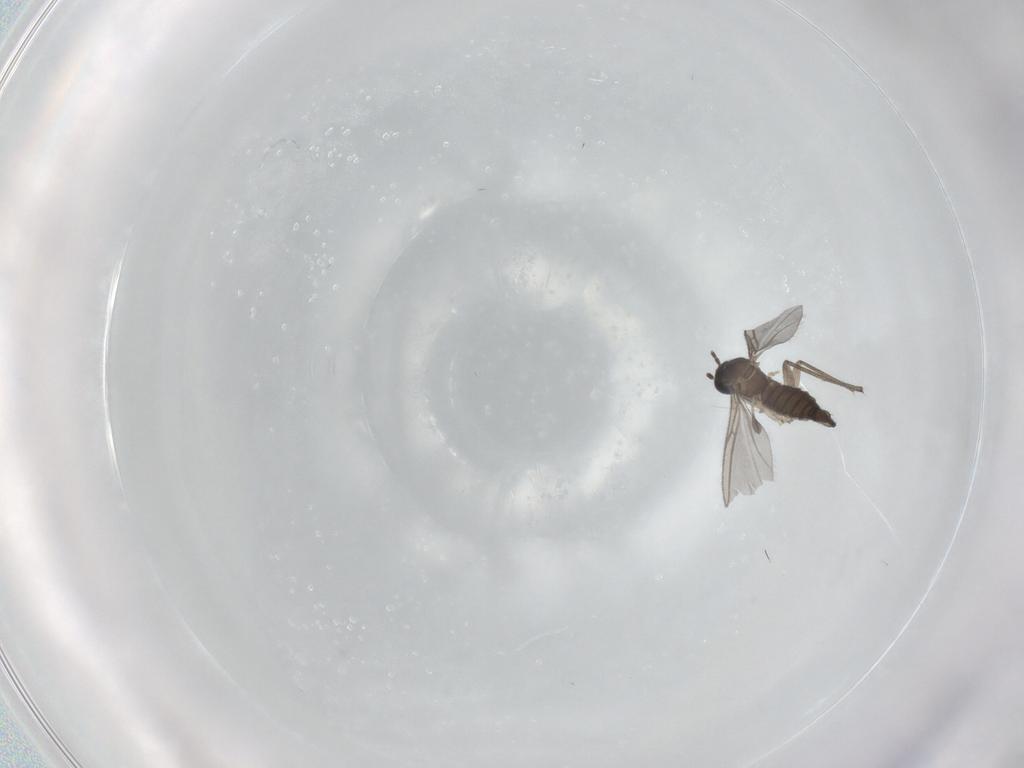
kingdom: Animalia
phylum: Arthropoda
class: Insecta
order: Diptera
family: Sciaridae
